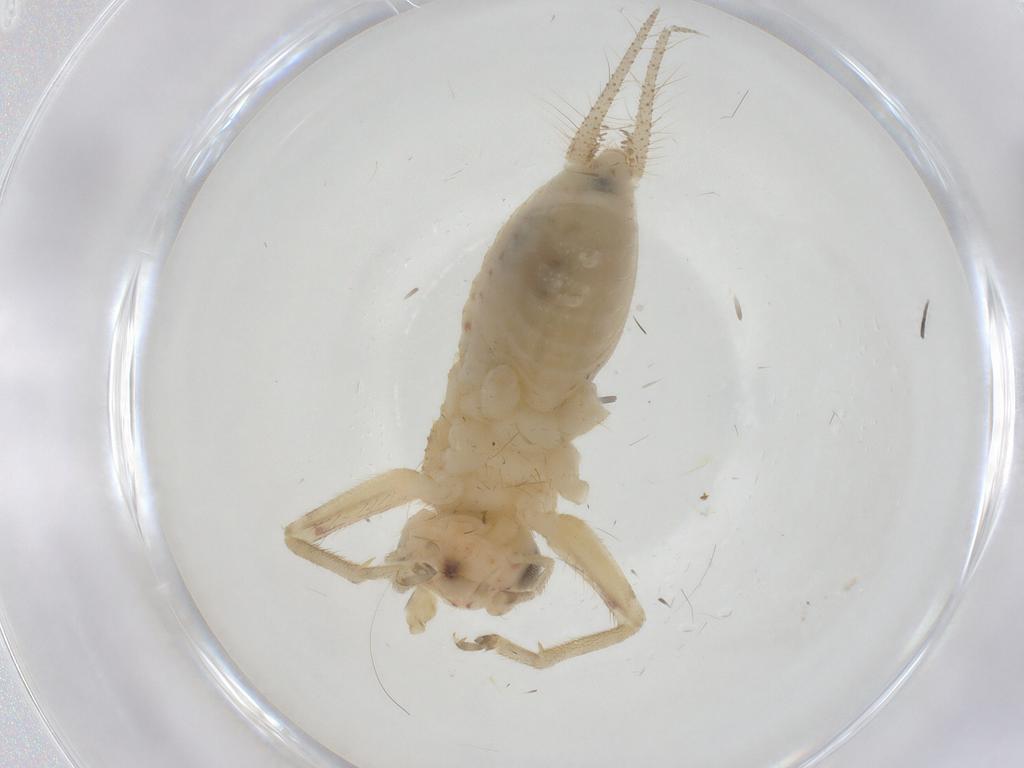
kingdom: Animalia
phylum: Arthropoda
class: Insecta
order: Orthoptera
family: Trigonidiidae
